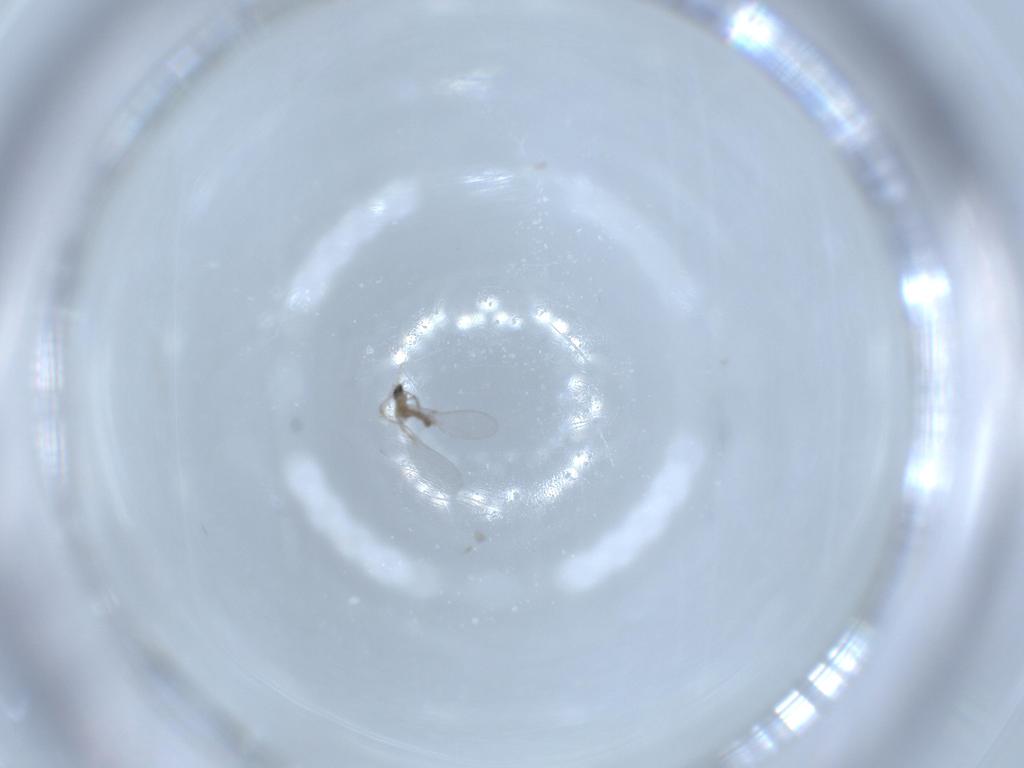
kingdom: Animalia
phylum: Arthropoda
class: Insecta
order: Diptera
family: Cecidomyiidae
